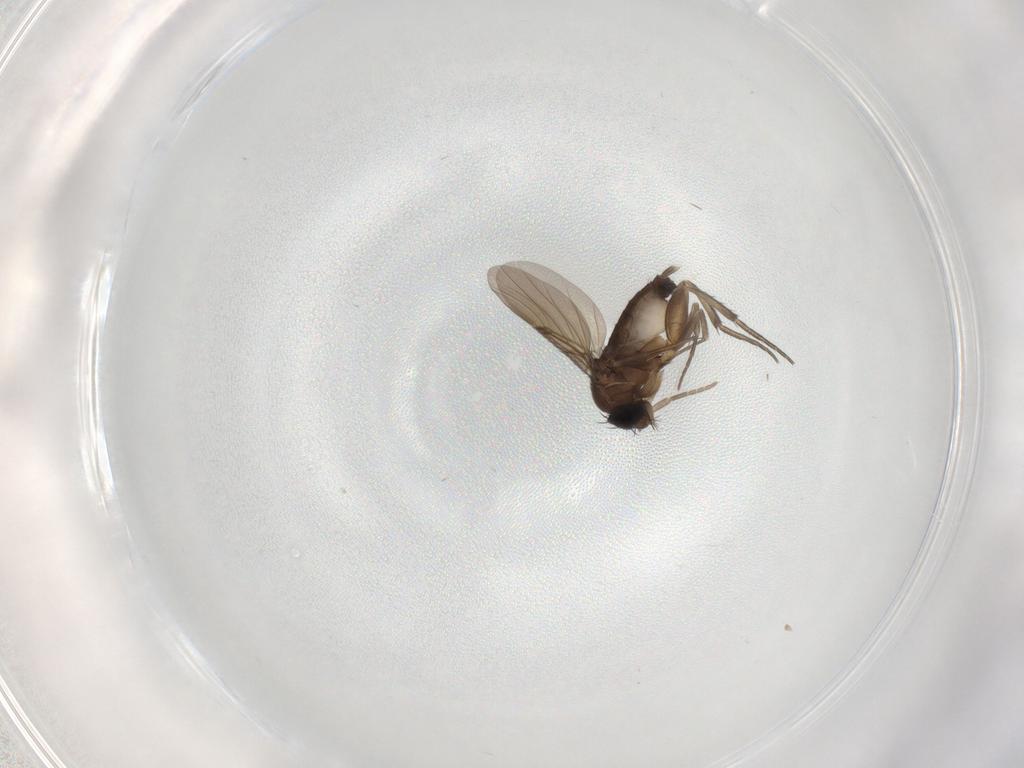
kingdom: Animalia
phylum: Arthropoda
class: Insecta
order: Diptera
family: Phoridae
